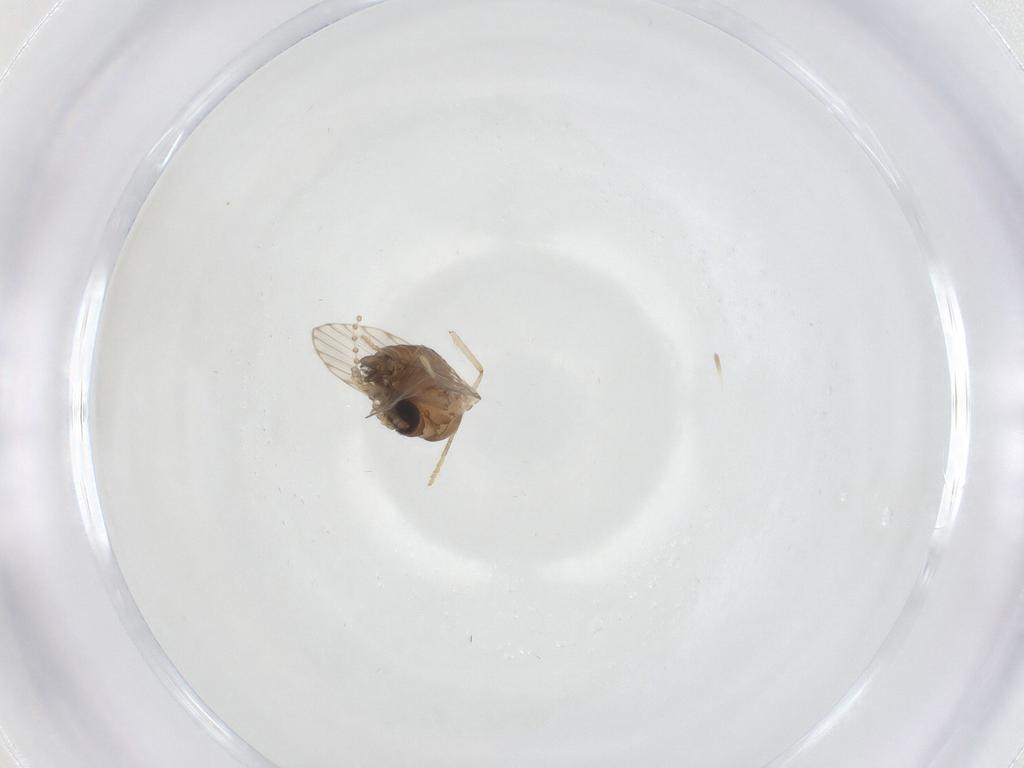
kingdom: Animalia
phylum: Arthropoda
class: Insecta
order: Diptera
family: Psychodidae
